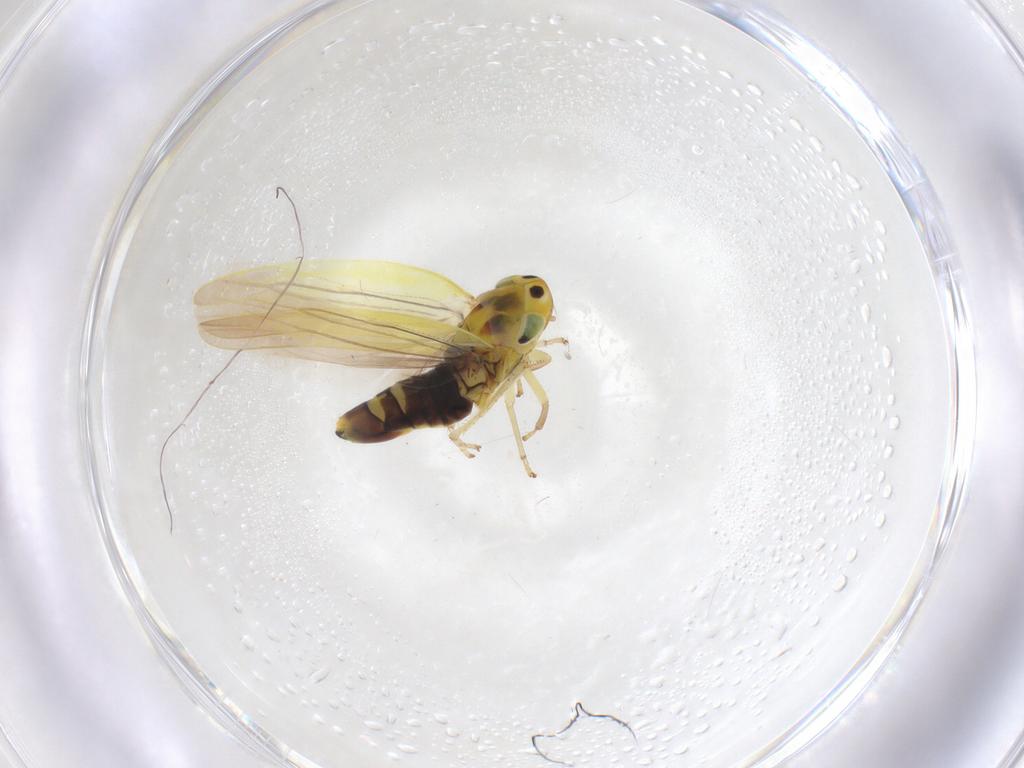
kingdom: Animalia
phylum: Arthropoda
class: Insecta
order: Hemiptera
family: Cicadellidae
